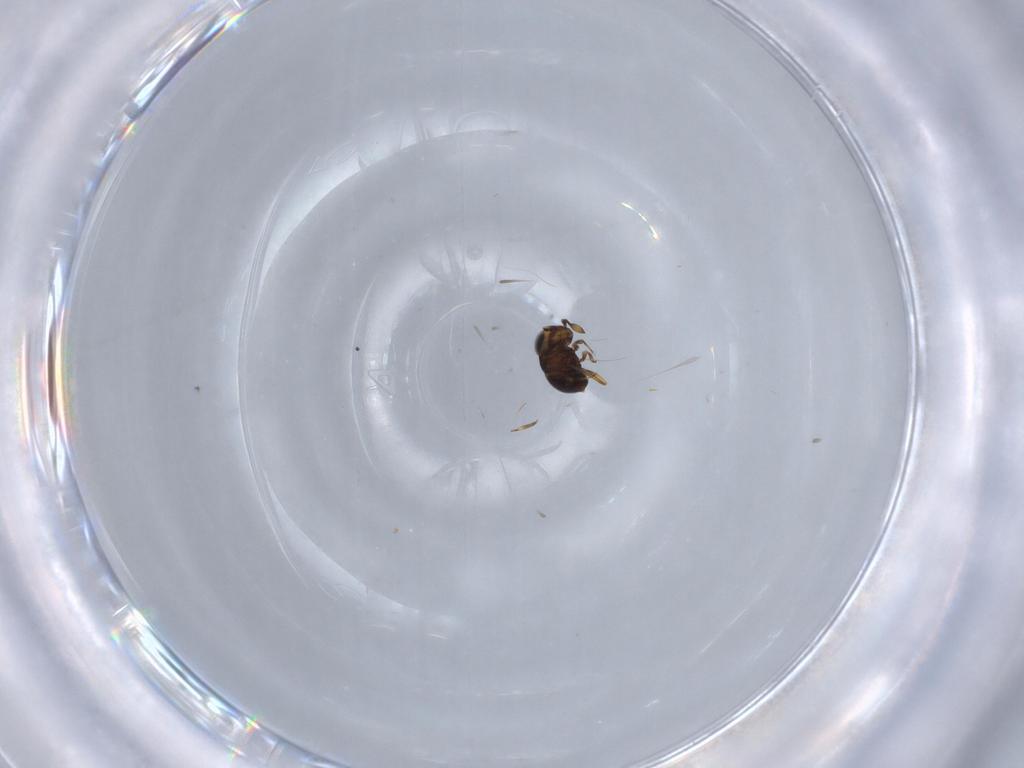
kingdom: Animalia
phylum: Arthropoda
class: Insecta
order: Hymenoptera
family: Scelionidae
